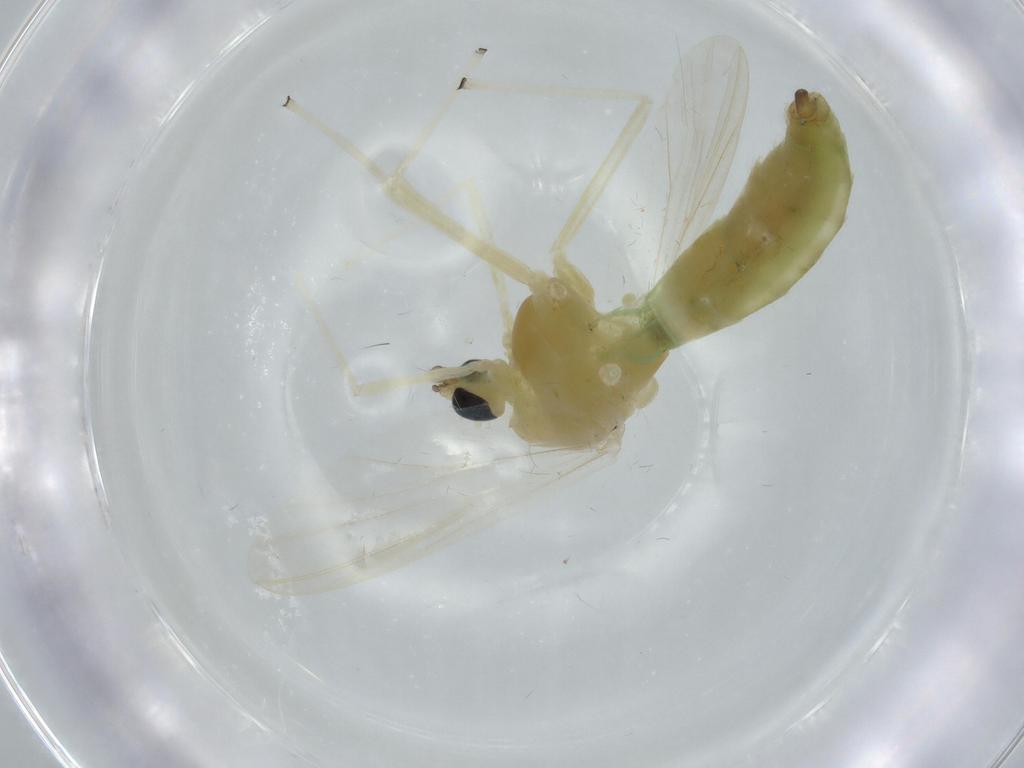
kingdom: Animalia
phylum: Arthropoda
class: Insecta
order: Diptera
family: Chironomidae
